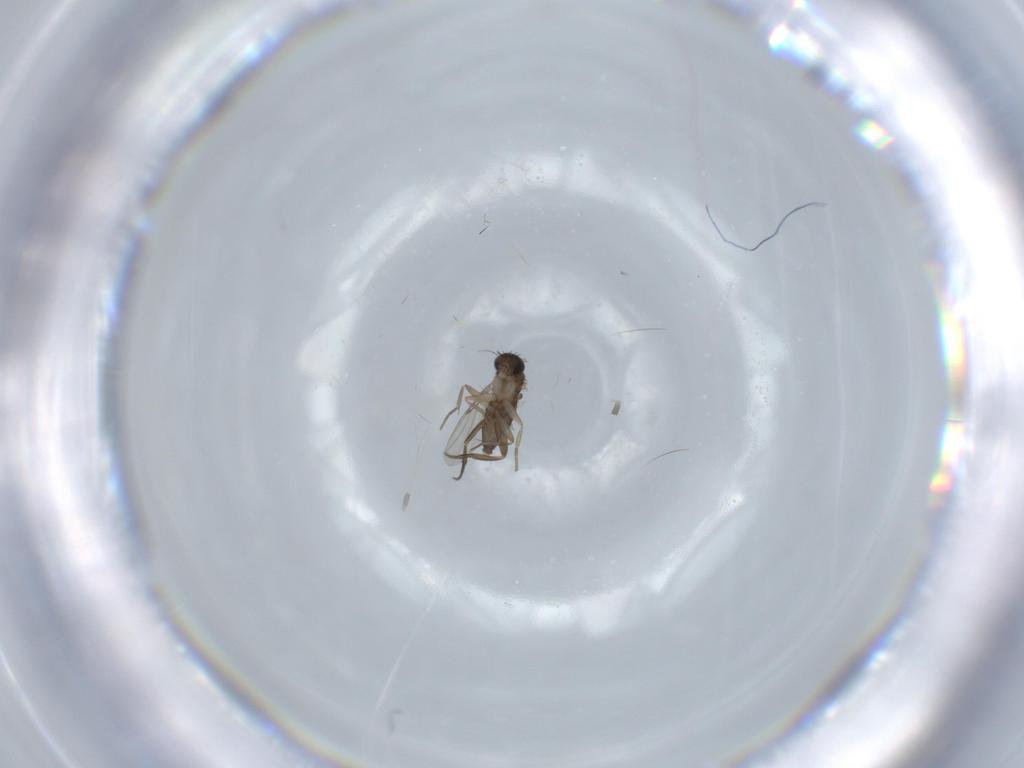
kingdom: Animalia
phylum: Arthropoda
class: Insecta
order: Diptera
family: Phoridae
